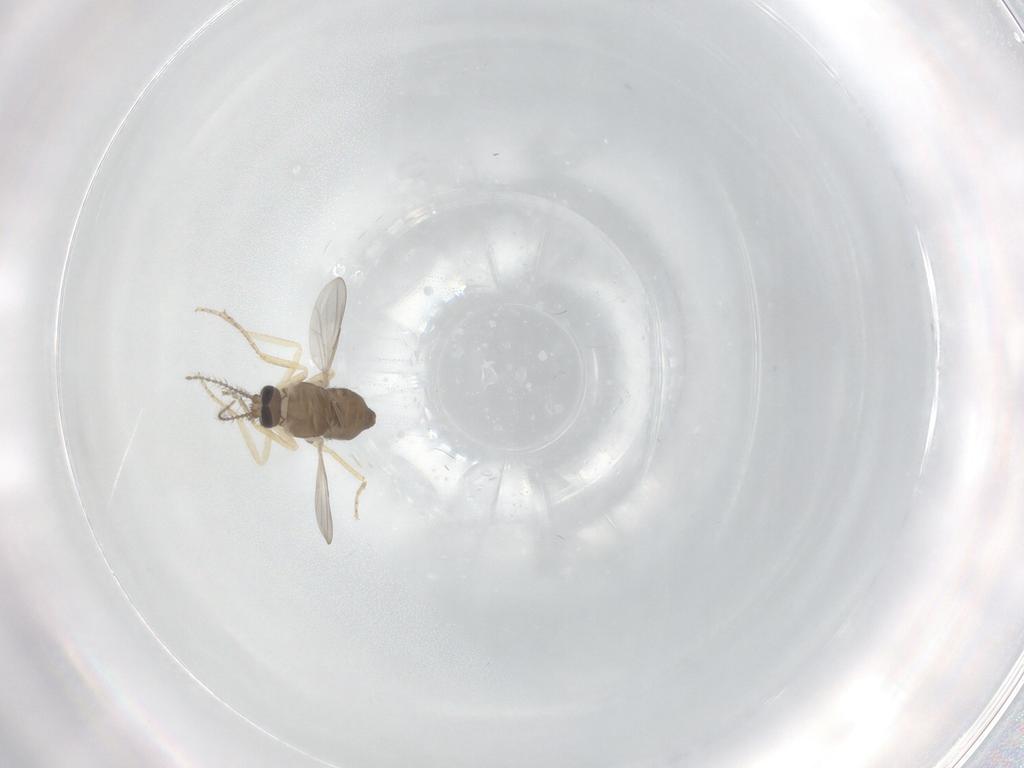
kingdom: Animalia
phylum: Arthropoda
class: Insecta
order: Diptera
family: Ceratopogonidae
